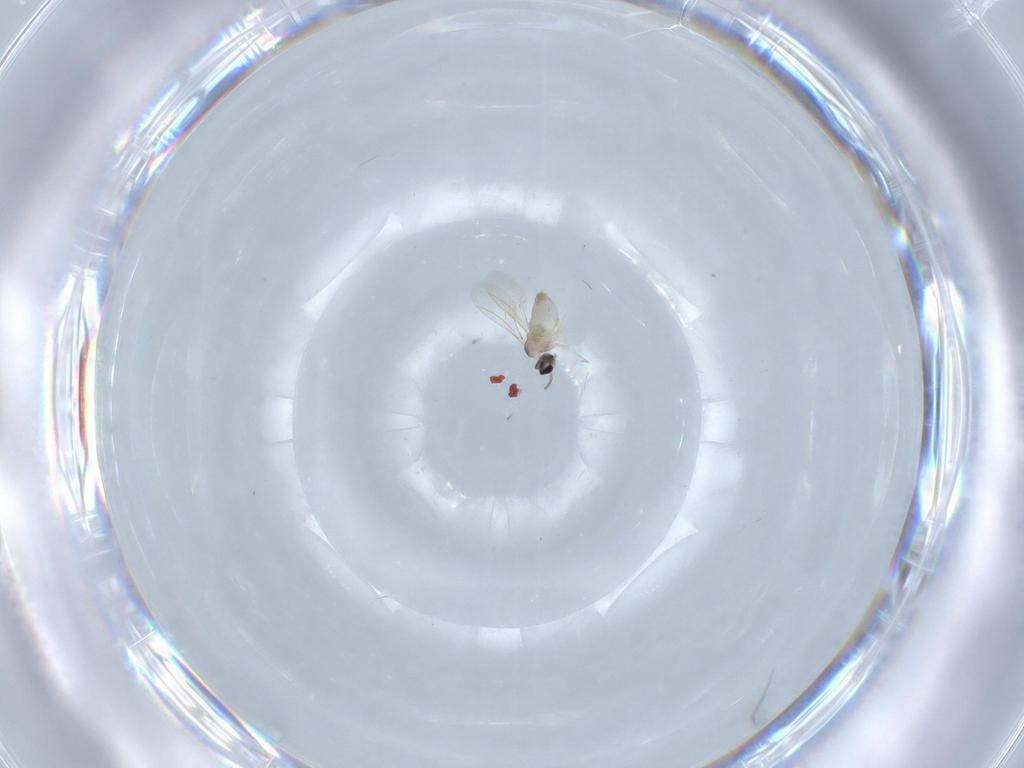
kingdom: Animalia
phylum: Arthropoda
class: Insecta
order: Diptera
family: Cecidomyiidae
